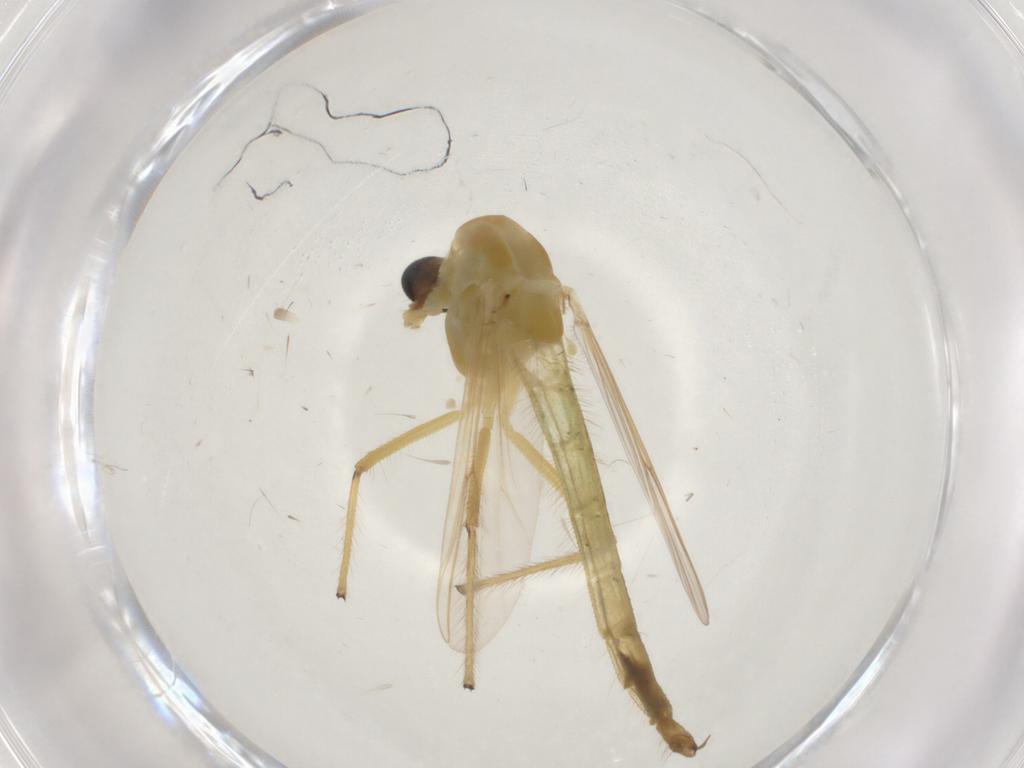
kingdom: Animalia
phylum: Arthropoda
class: Insecta
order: Diptera
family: Chironomidae
